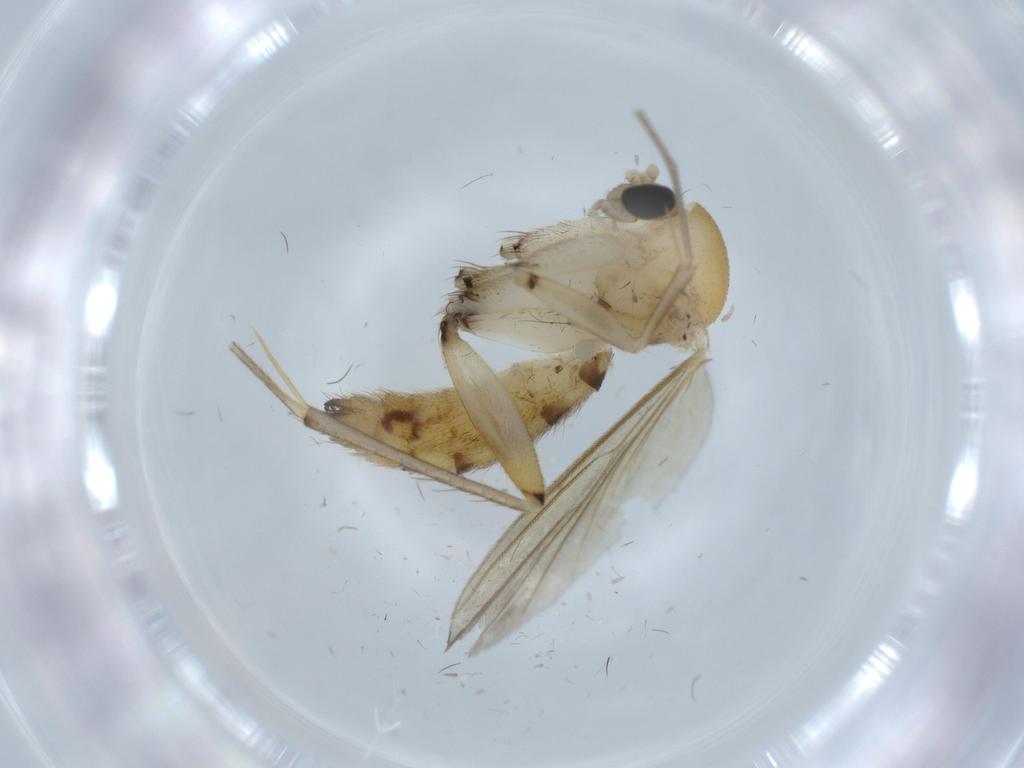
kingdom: Animalia
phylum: Arthropoda
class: Insecta
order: Diptera
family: Mycetophilidae
